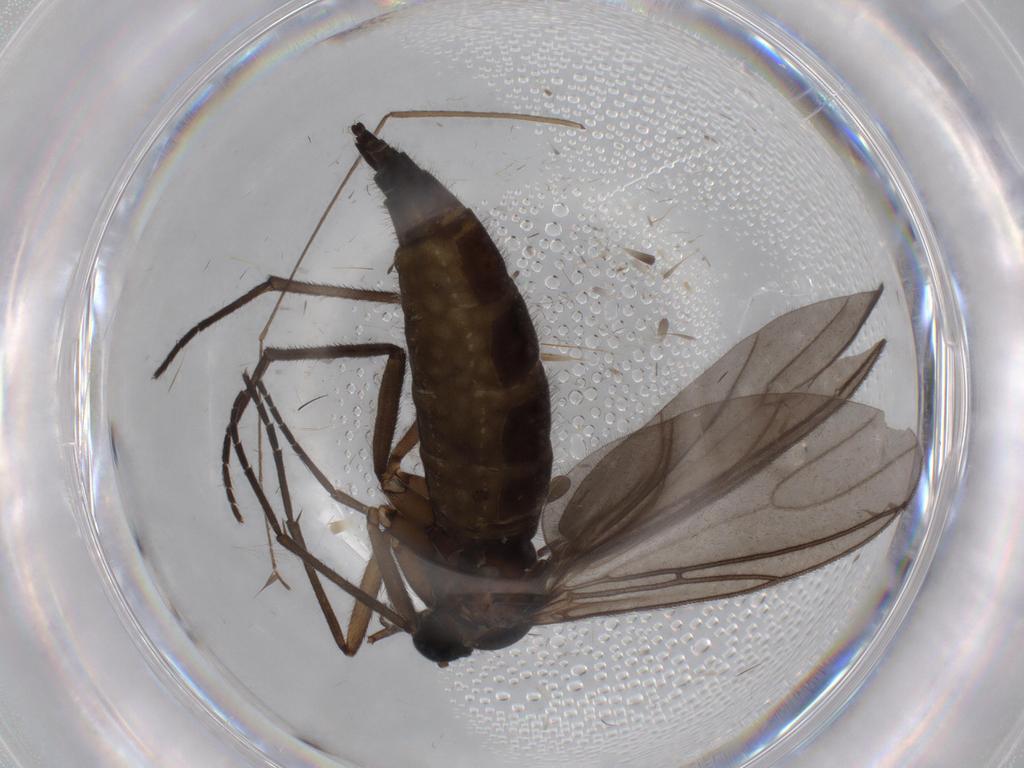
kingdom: Animalia
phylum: Arthropoda
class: Insecta
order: Diptera
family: Sciaridae
